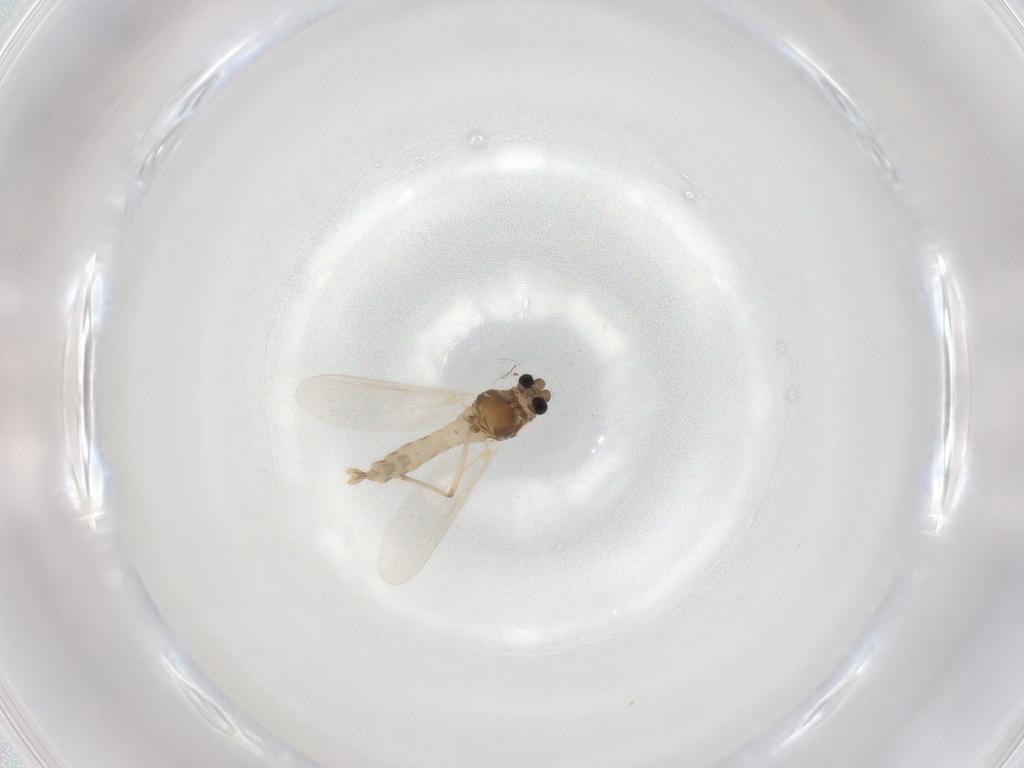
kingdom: Animalia
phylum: Arthropoda
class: Insecta
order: Diptera
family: Chironomidae
